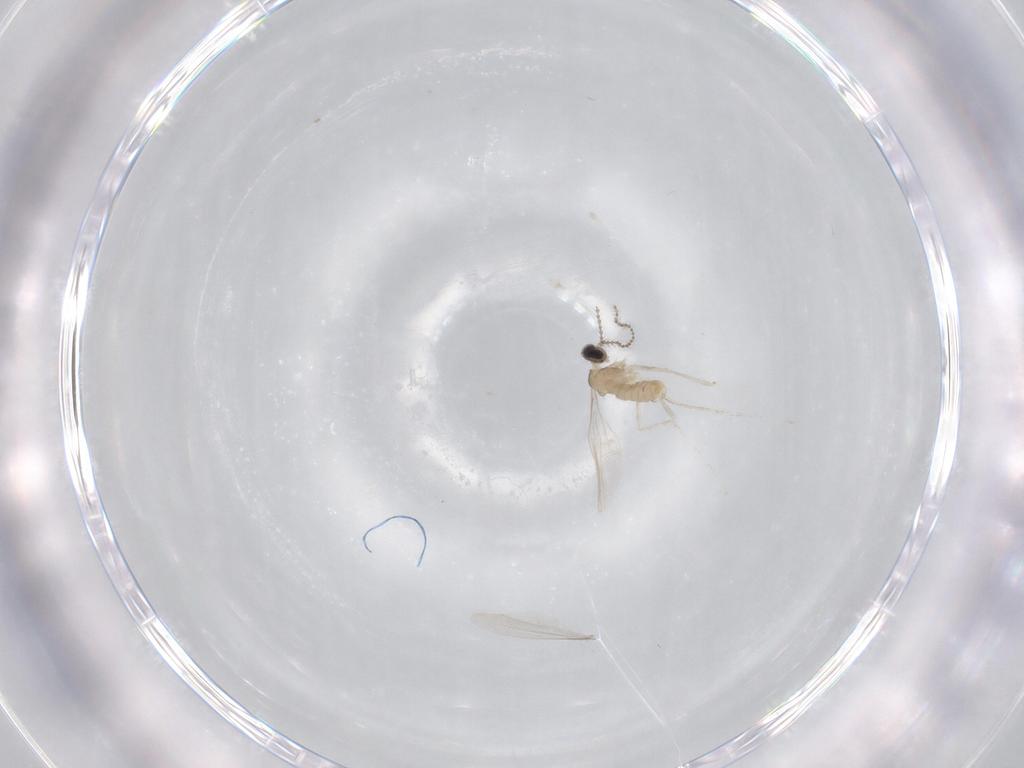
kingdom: Animalia
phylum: Arthropoda
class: Insecta
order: Diptera
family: Cecidomyiidae
